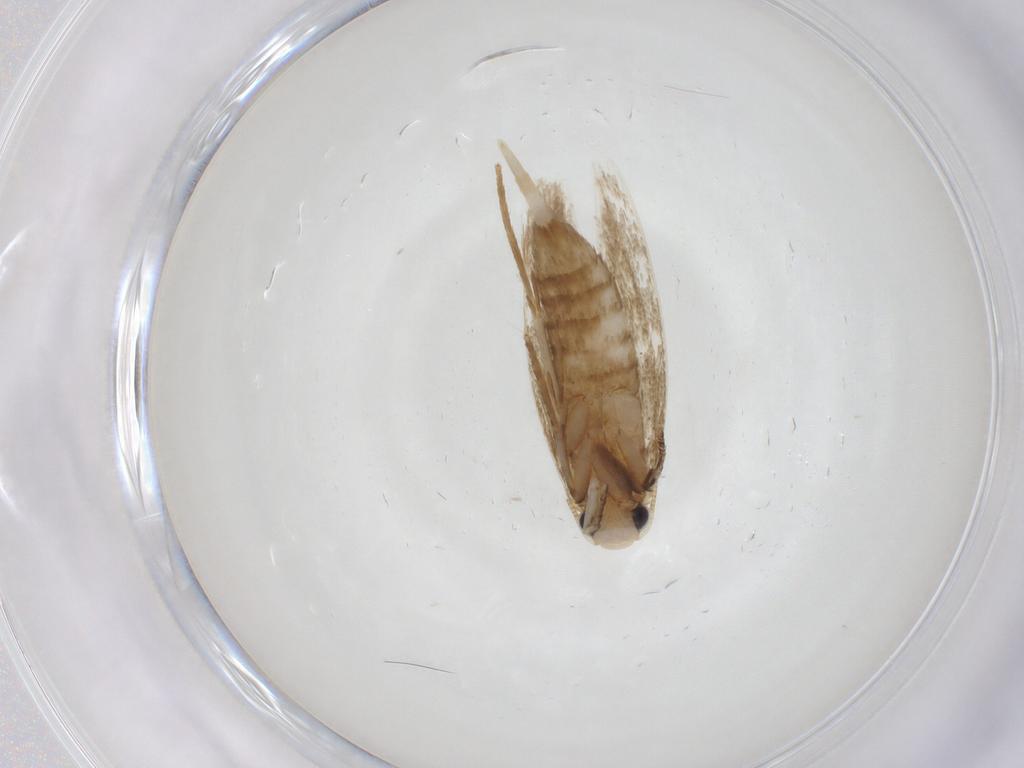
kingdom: Animalia
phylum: Arthropoda
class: Insecta
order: Lepidoptera
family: Tineidae
